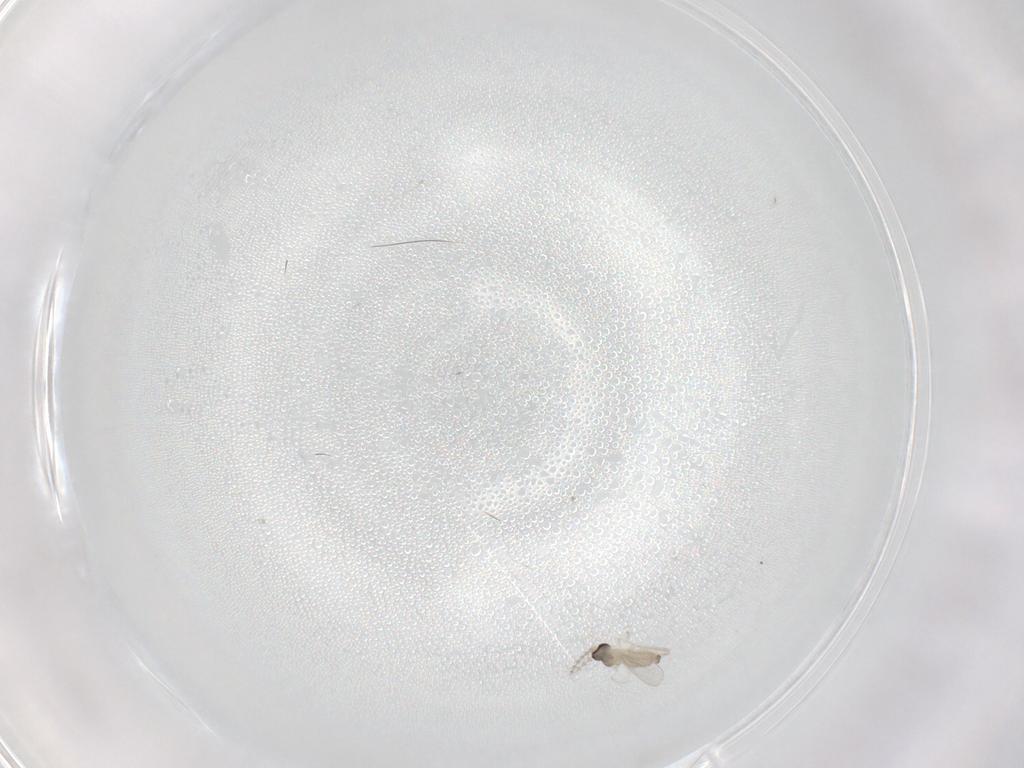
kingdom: Animalia
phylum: Arthropoda
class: Insecta
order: Diptera
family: Cecidomyiidae
